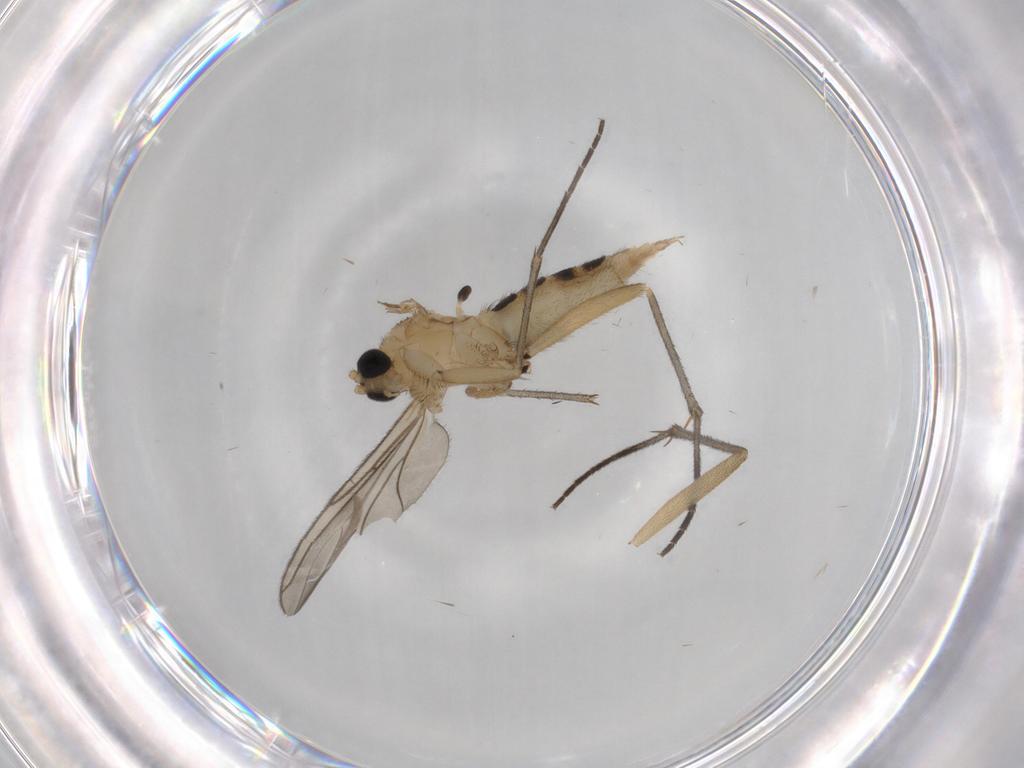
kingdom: Animalia
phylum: Arthropoda
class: Insecta
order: Diptera
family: Sciaridae
